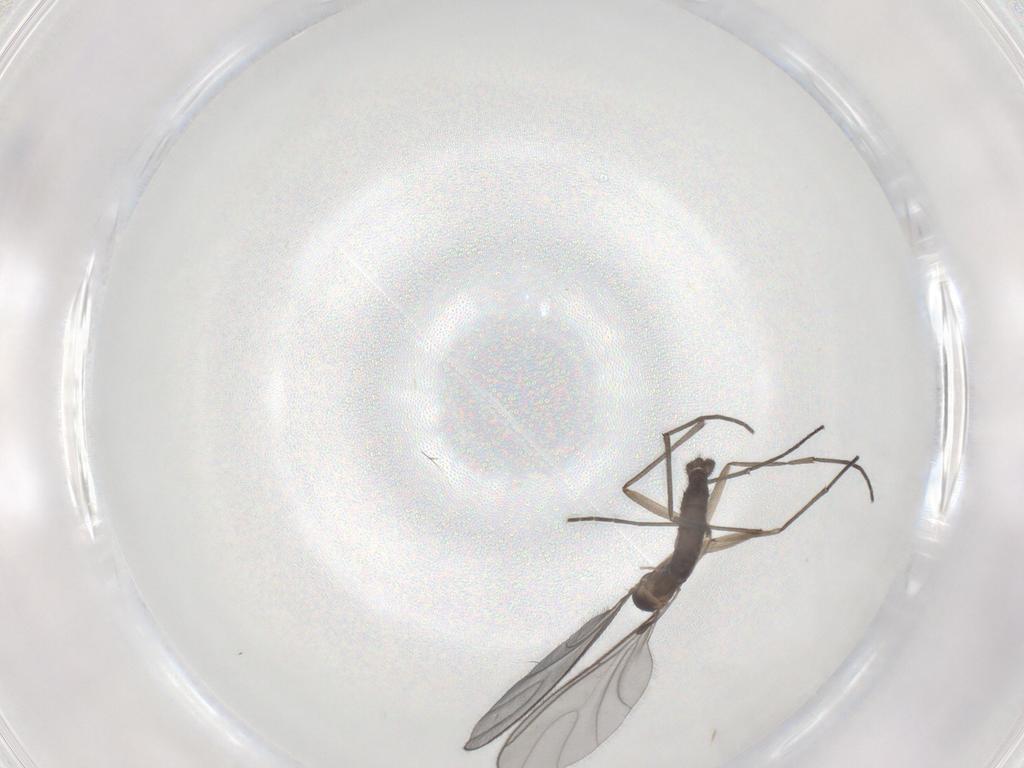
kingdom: Animalia
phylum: Arthropoda
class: Insecta
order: Diptera
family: Sciaridae
